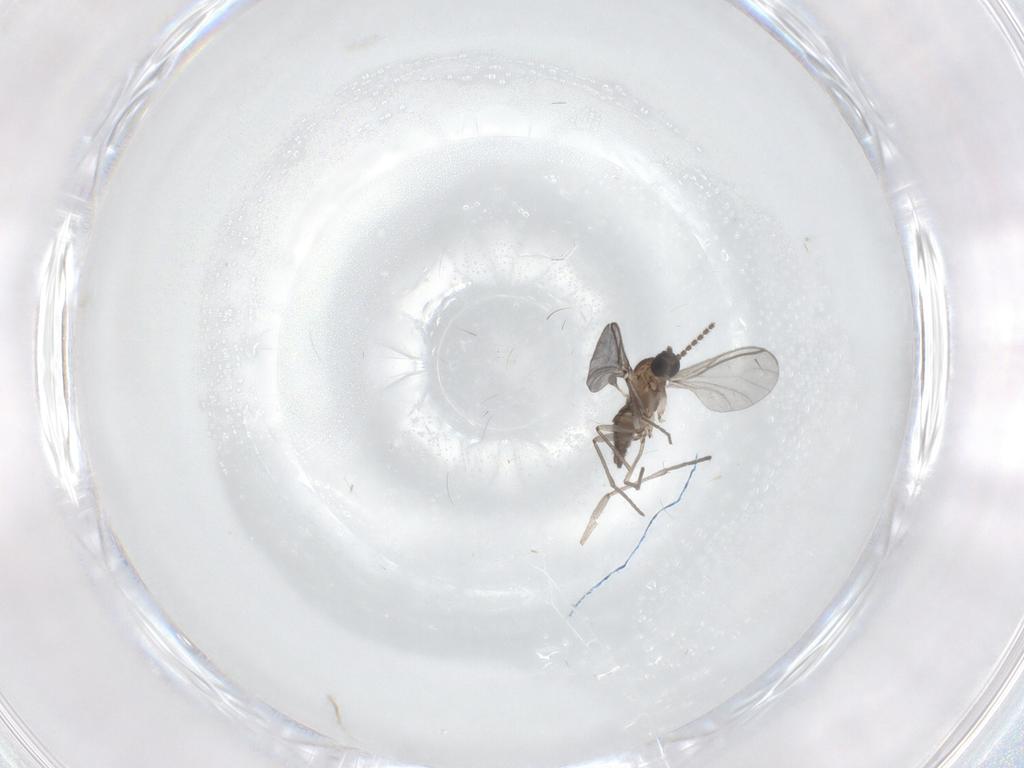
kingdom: Animalia
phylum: Arthropoda
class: Insecta
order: Diptera
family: Sciaridae
